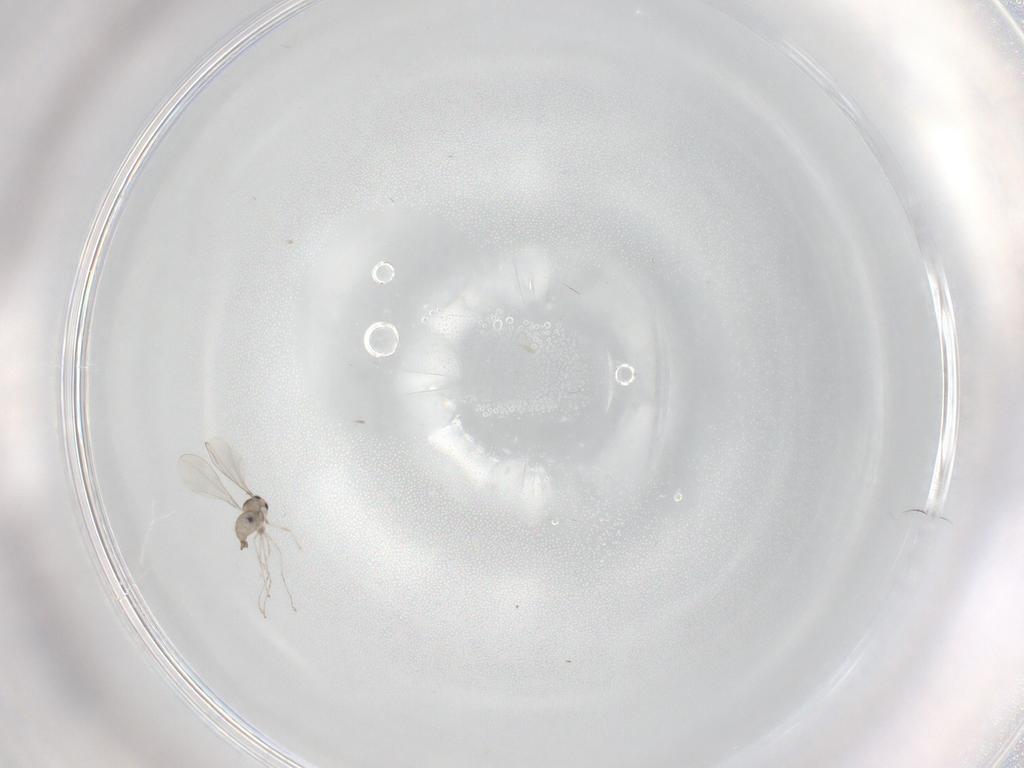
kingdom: Animalia
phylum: Arthropoda
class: Insecta
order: Diptera
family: Cecidomyiidae
